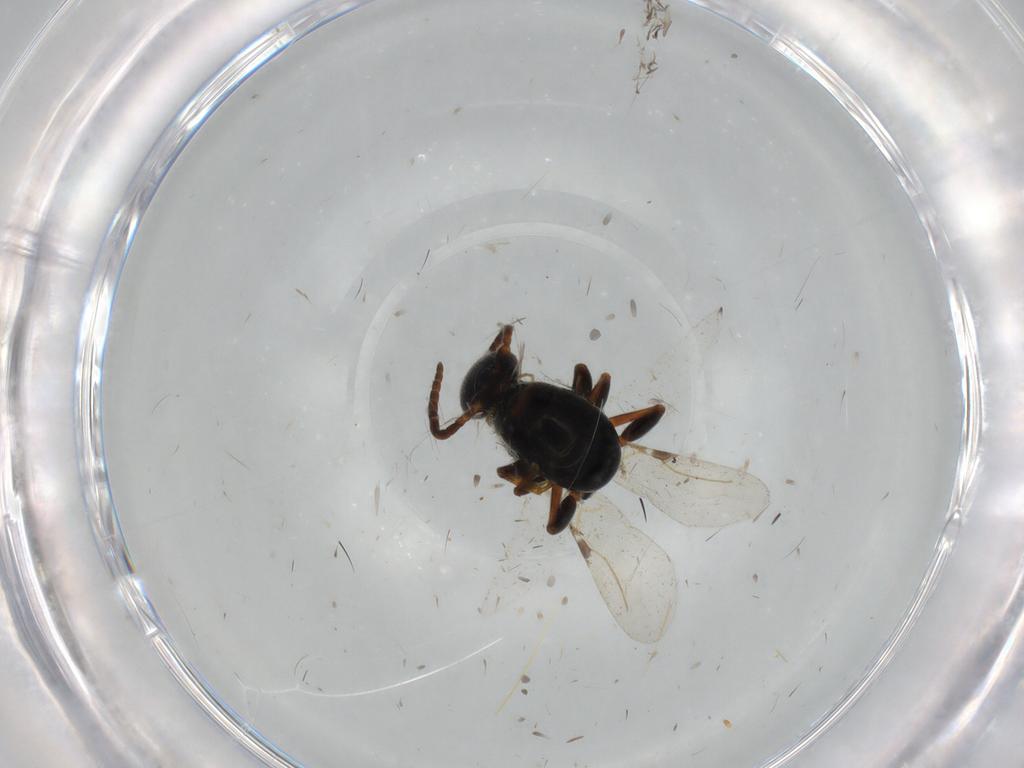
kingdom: Animalia
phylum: Arthropoda
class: Insecta
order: Hymenoptera
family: Bethylidae
